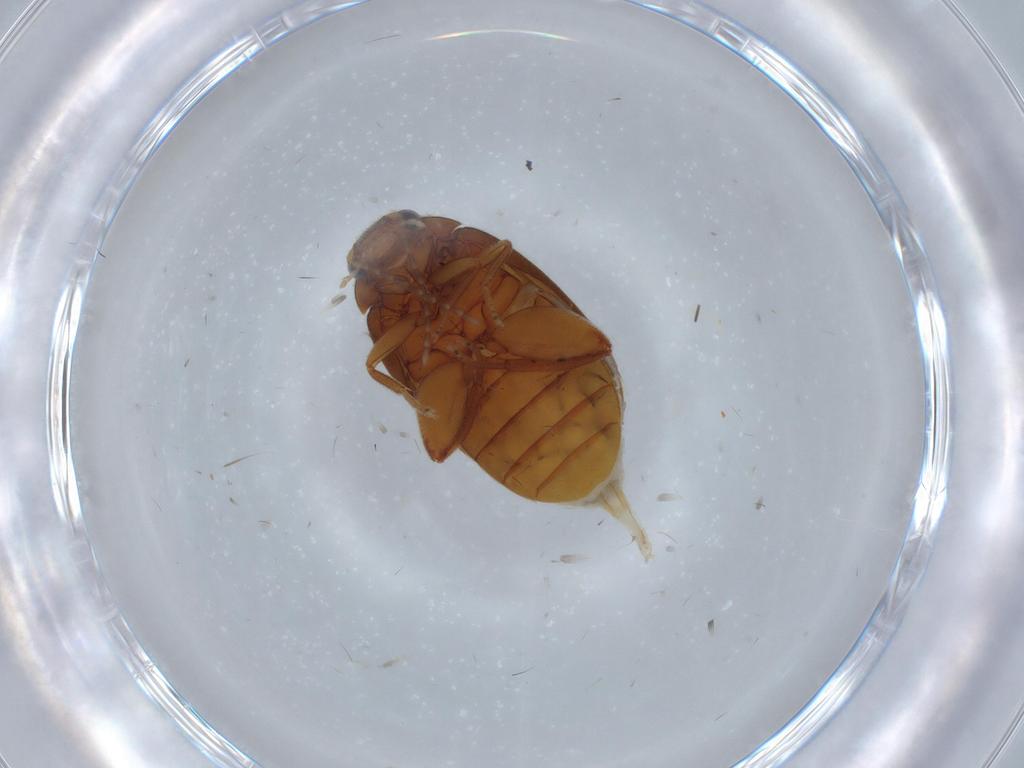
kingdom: Animalia
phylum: Arthropoda
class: Insecta
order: Coleoptera
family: Scirtidae
